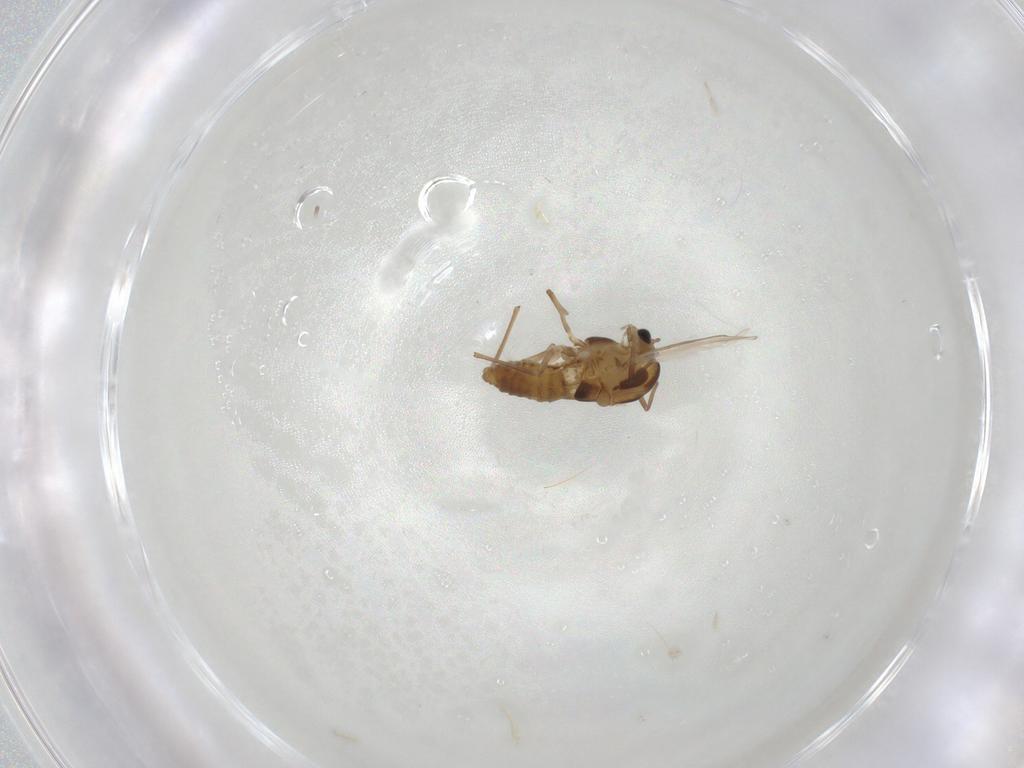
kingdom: Animalia
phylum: Arthropoda
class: Insecta
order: Diptera
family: Chironomidae
